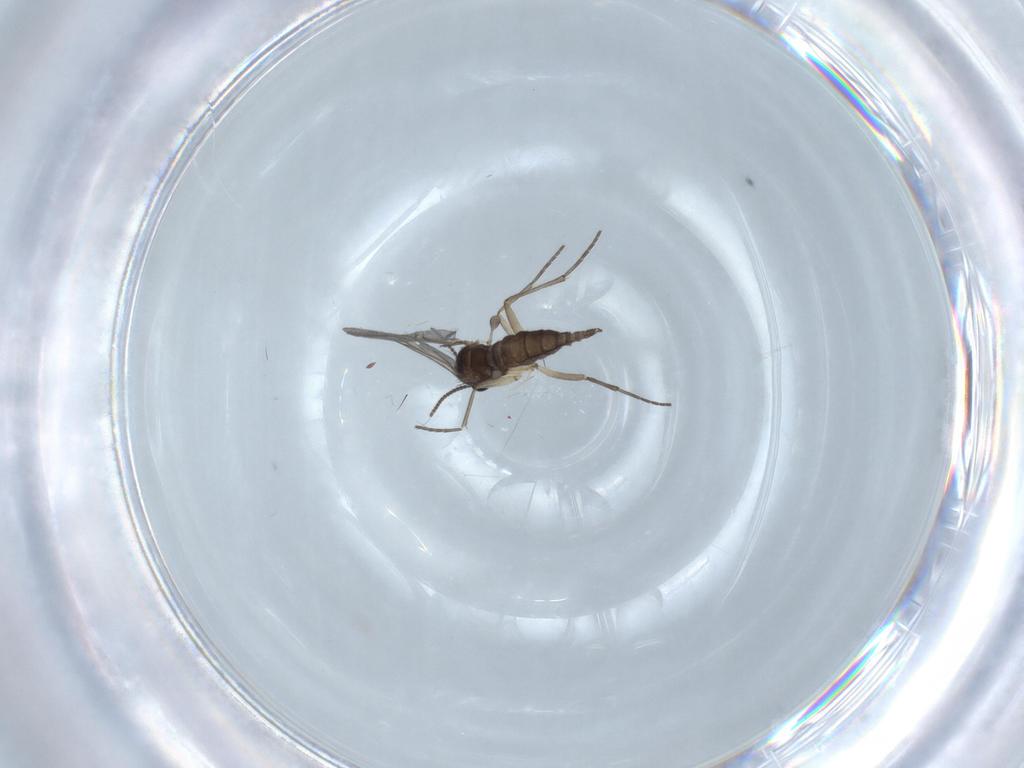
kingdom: Animalia
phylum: Arthropoda
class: Insecta
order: Diptera
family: Sciaridae
